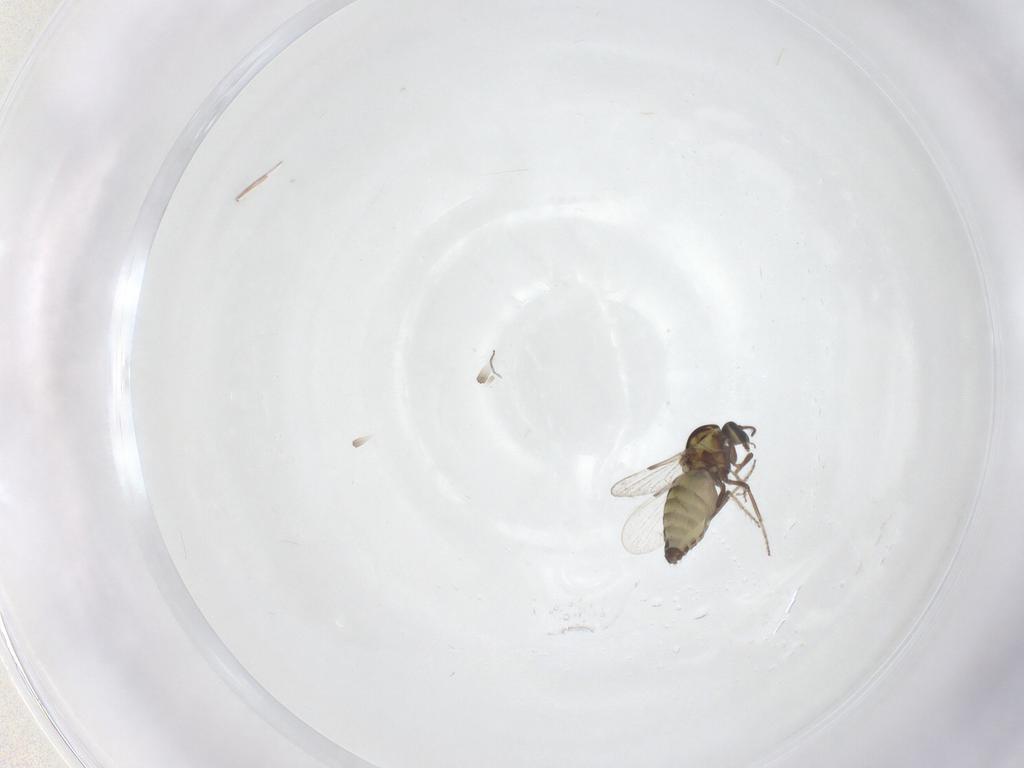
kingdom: Animalia
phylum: Arthropoda
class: Insecta
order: Diptera
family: Ceratopogonidae
